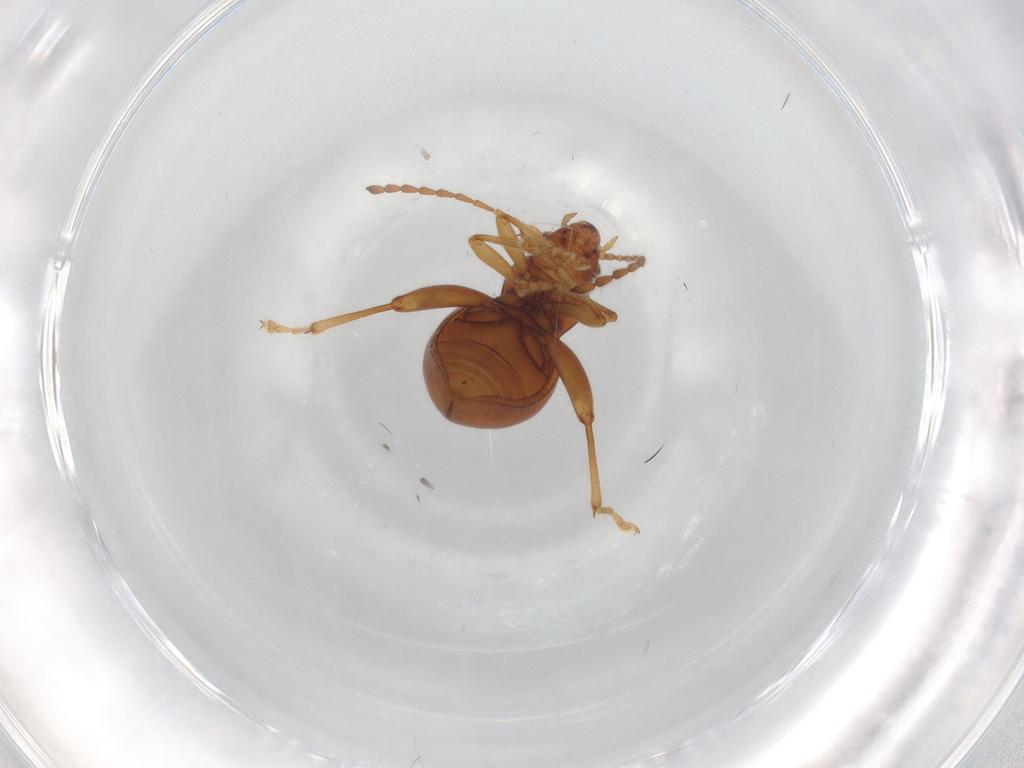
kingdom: Animalia
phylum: Arthropoda
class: Insecta
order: Coleoptera
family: Chrysomelidae
